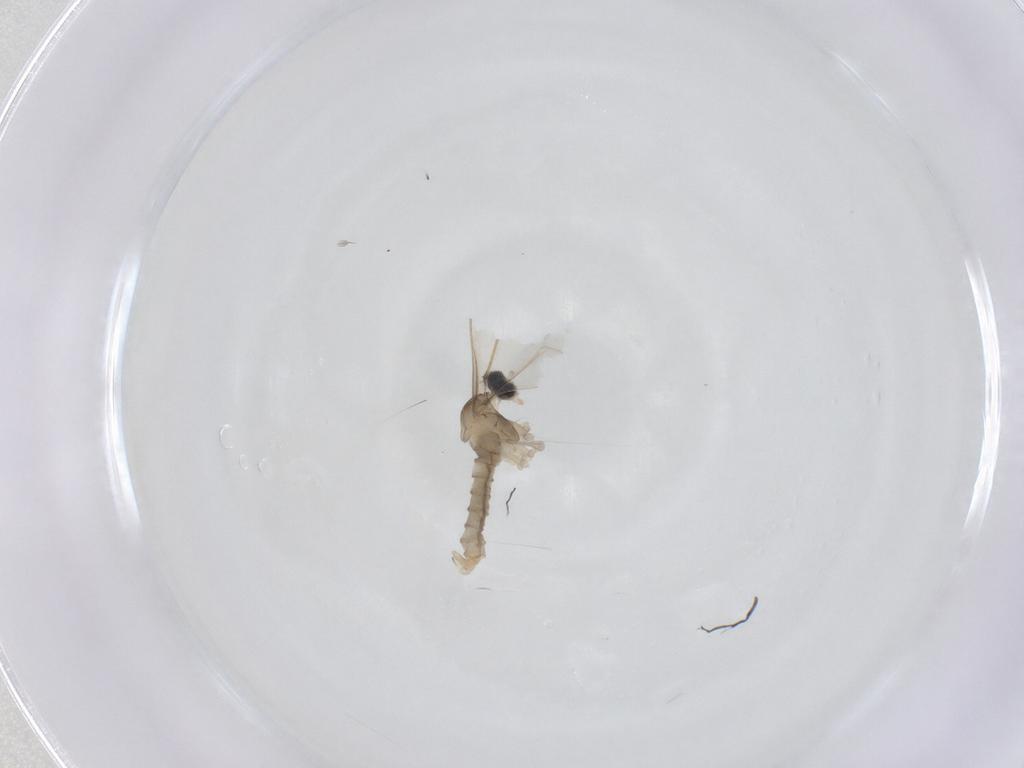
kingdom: Animalia
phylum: Arthropoda
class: Insecta
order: Diptera
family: Cecidomyiidae
